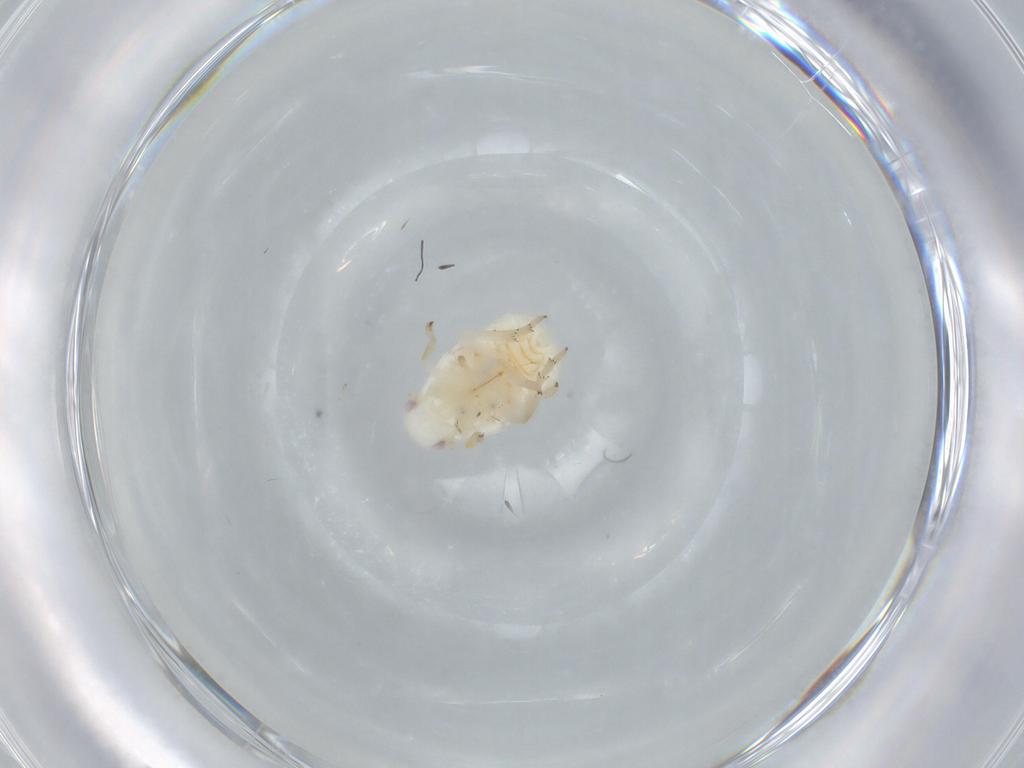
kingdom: Animalia
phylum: Arthropoda
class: Insecta
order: Hemiptera
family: Flatidae
